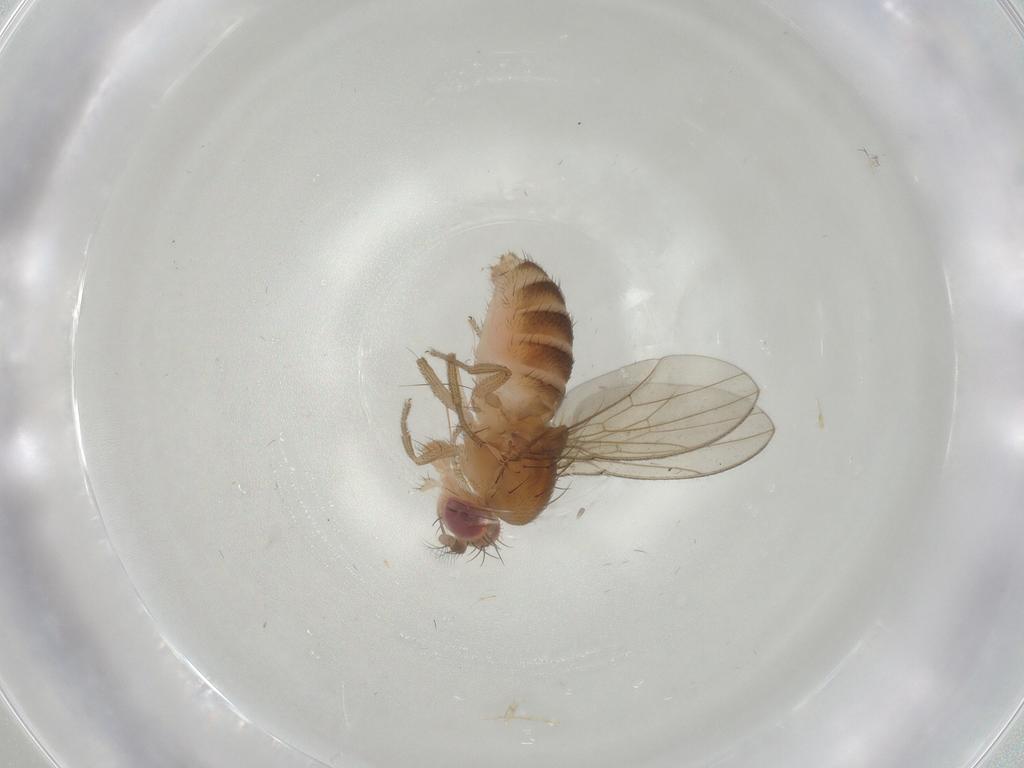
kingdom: Animalia
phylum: Arthropoda
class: Insecta
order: Diptera
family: Drosophilidae
